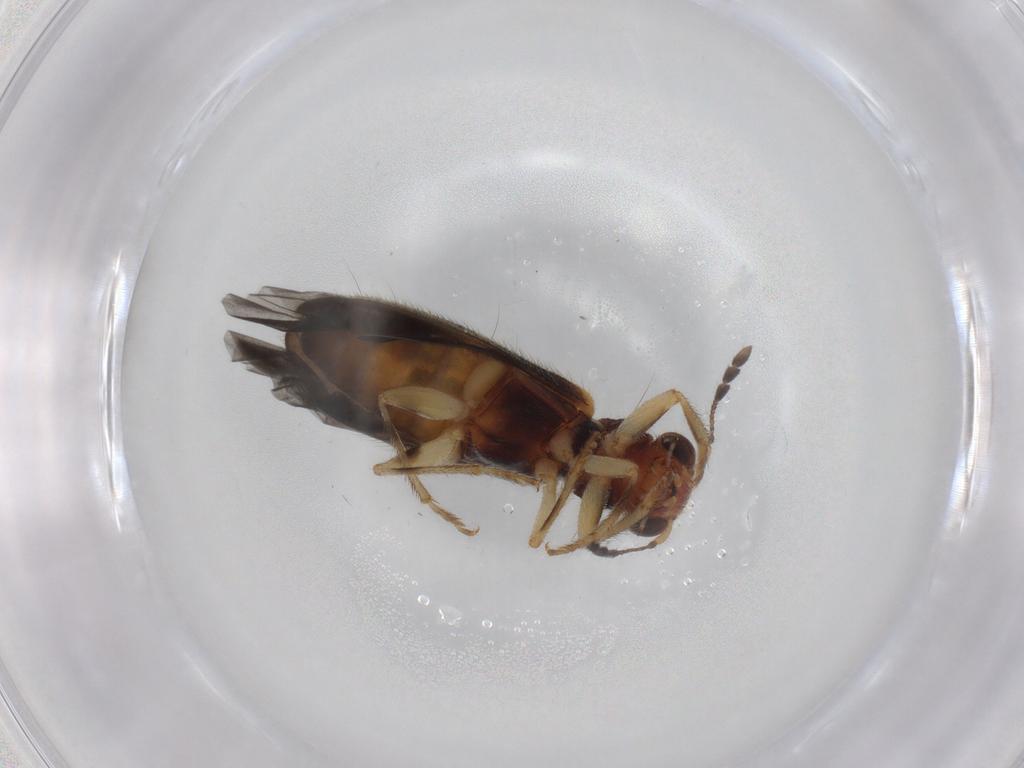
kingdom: Animalia
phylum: Arthropoda
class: Insecta
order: Coleoptera
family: Cleridae
